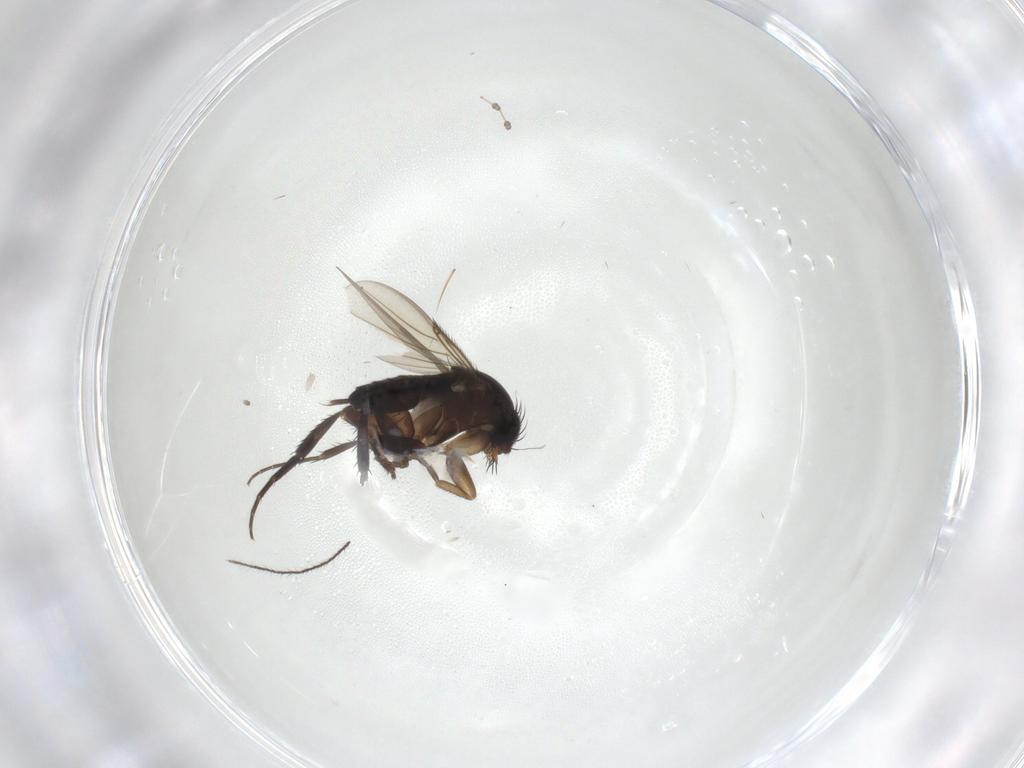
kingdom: Animalia
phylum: Arthropoda
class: Insecta
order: Diptera
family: Phoridae
